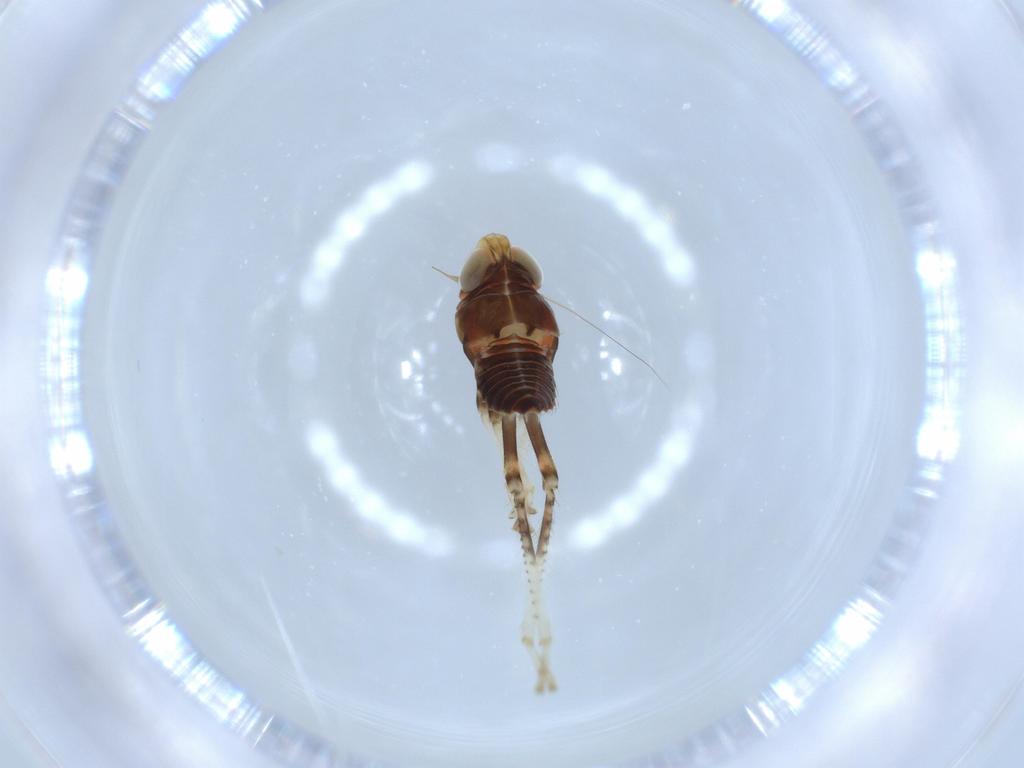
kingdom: Animalia
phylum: Arthropoda
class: Insecta
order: Hemiptera
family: Cicadellidae
